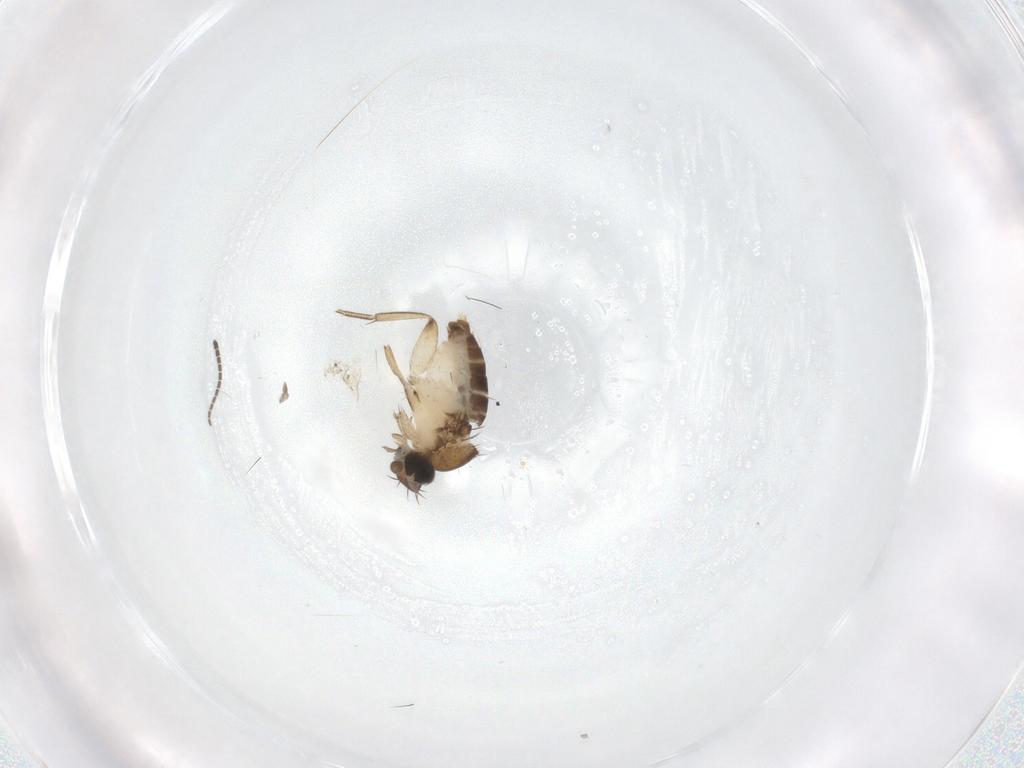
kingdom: Animalia
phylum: Arthropoda
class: Insecta
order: Diptera
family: Phoridae
